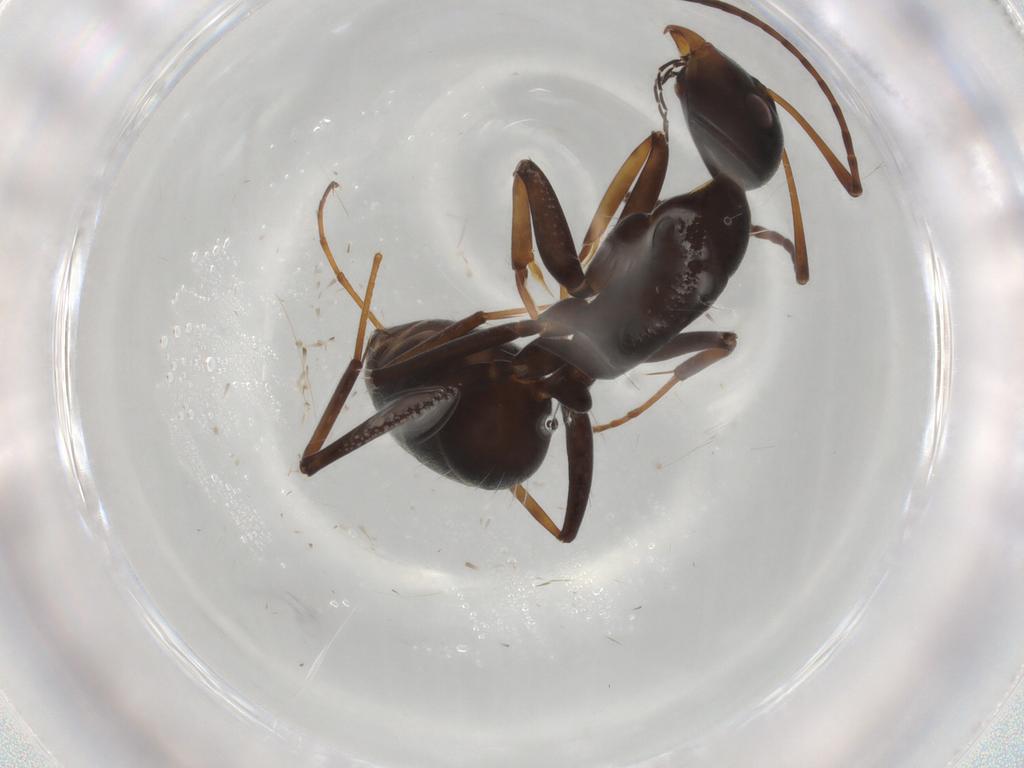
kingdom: Animalia
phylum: Arthropoda
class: Insecta
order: Hymenoptera
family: Formicidae
